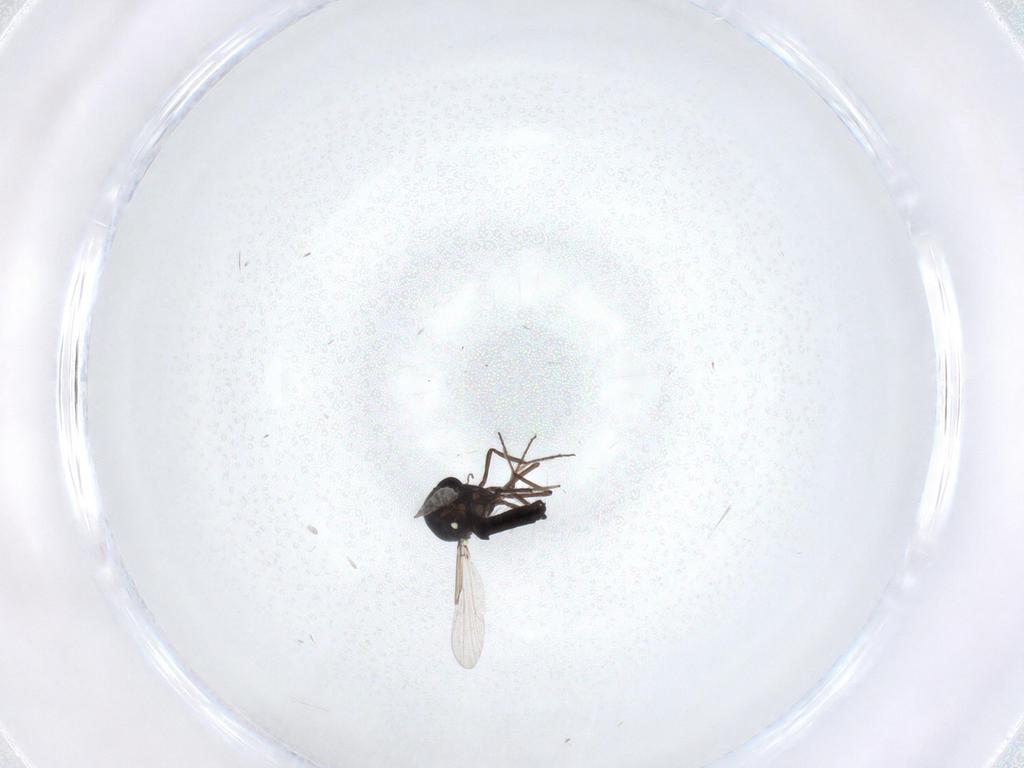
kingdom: Animalia
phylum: Arthropoda
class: Insecta
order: Diptera
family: Ceratopogonidae
